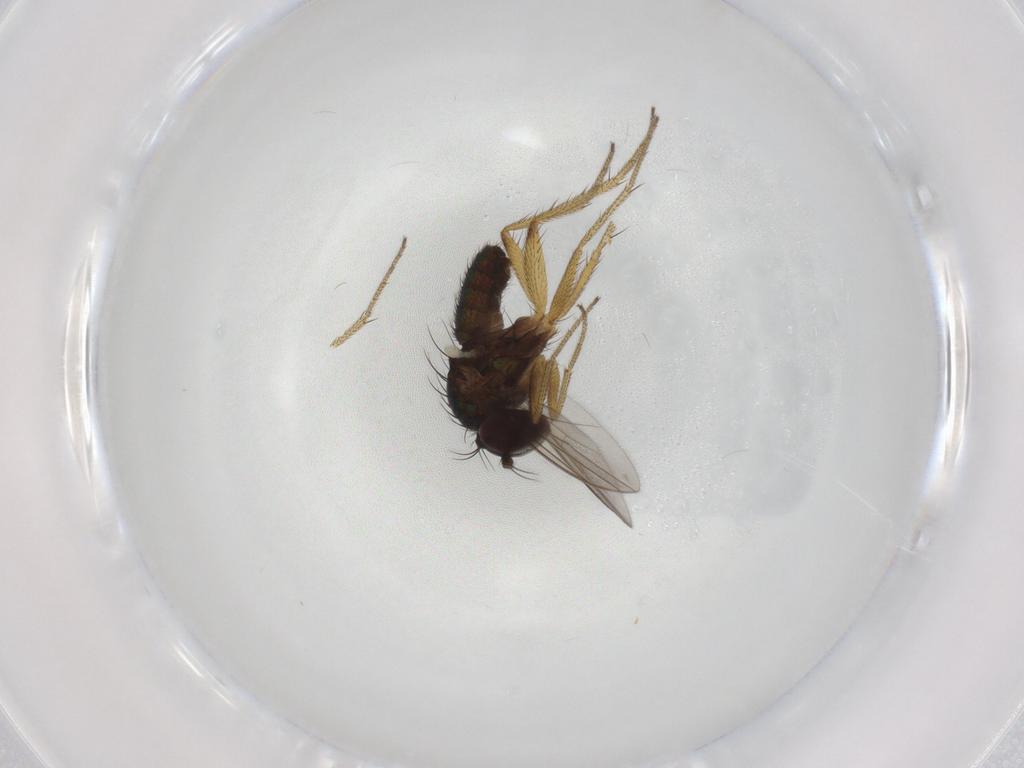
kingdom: Animalia
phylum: Arthropoda
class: Insecta
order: Diptera
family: Dolichopodidae
